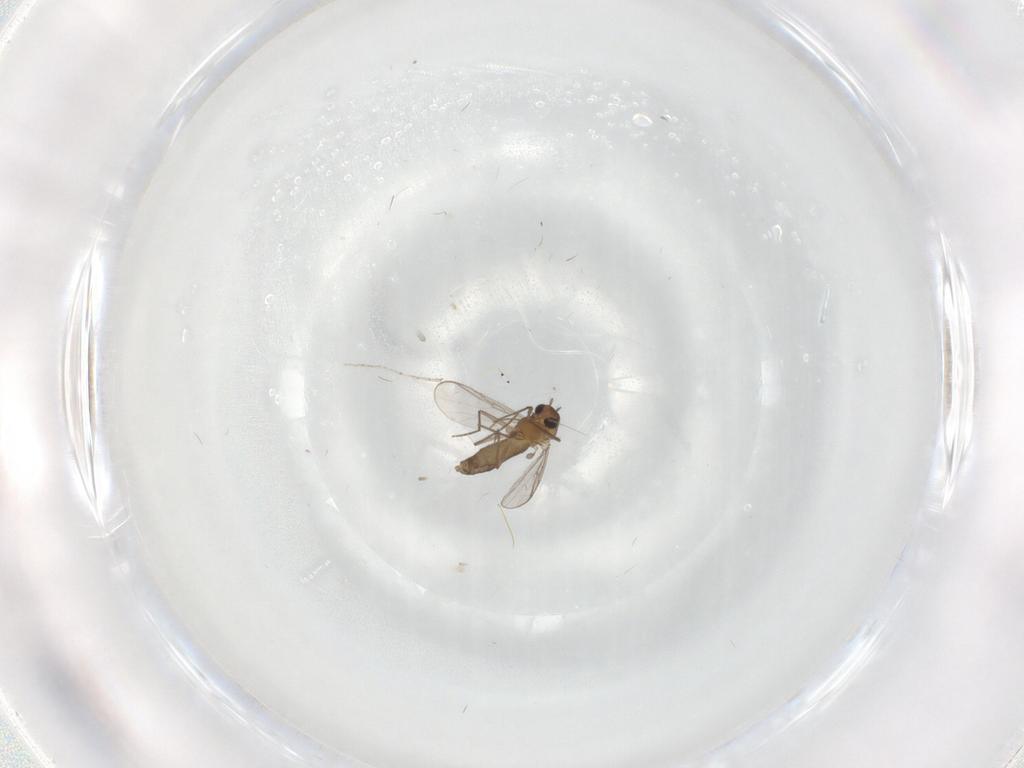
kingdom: Animalia
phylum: Arthropoda
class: Insecta
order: Diptera
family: Chironomidae
